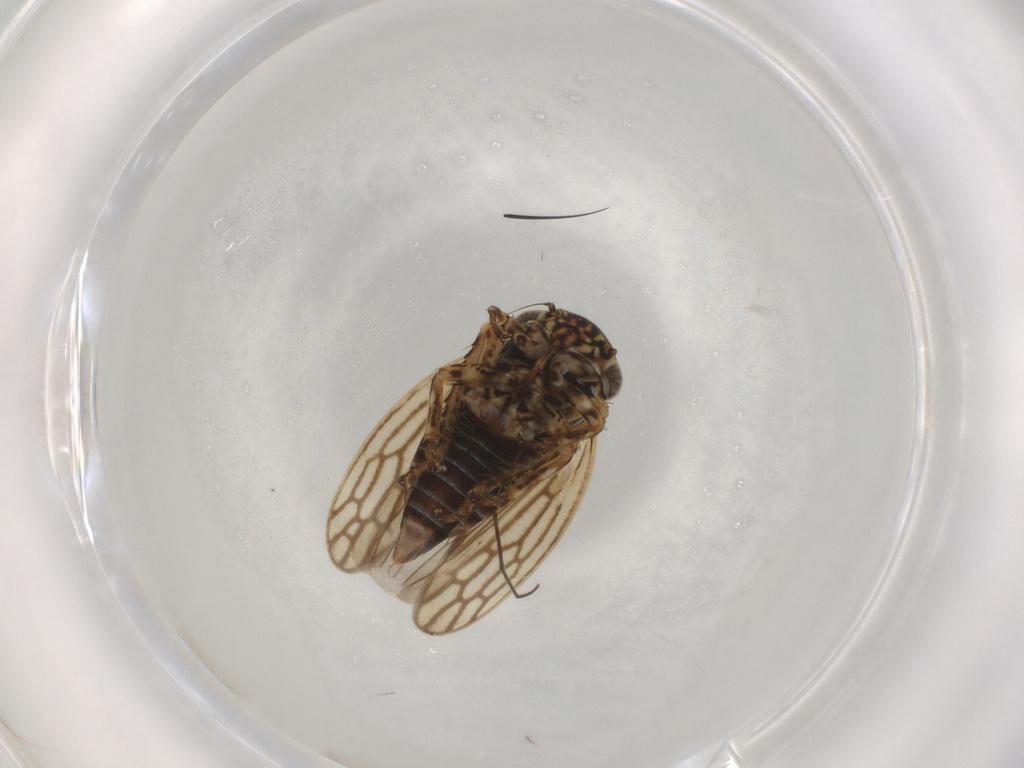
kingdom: Animalia
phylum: Arthropoda
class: Insecta
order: Hemiptera
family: Cicadellidae
